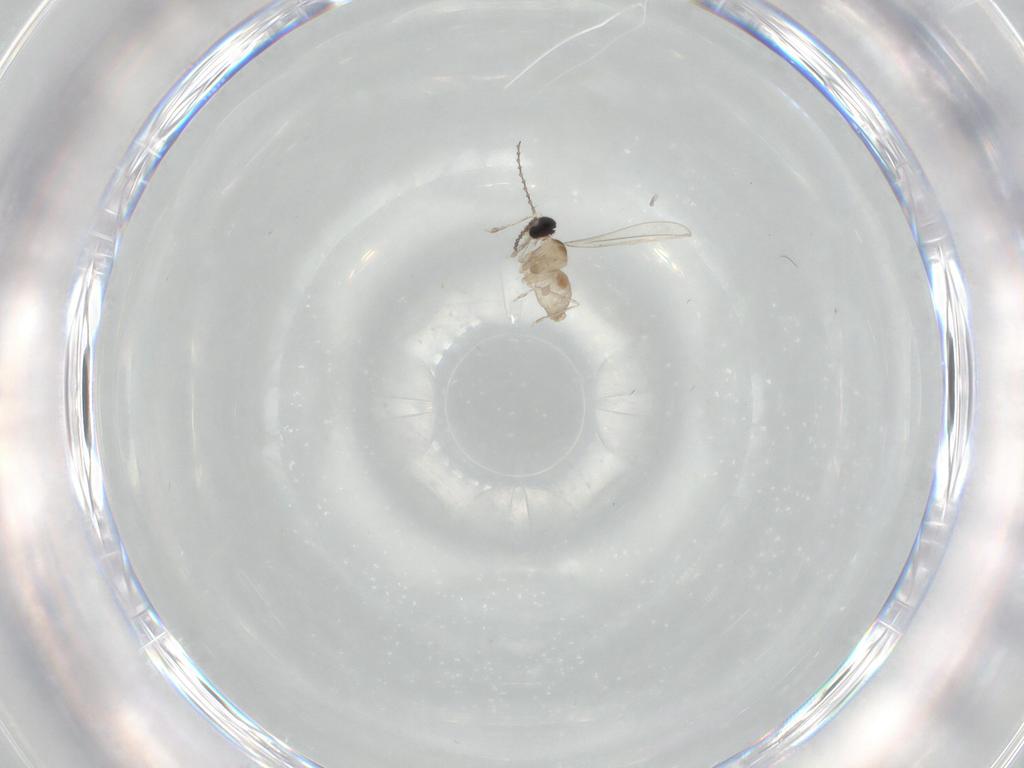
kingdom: Animalia
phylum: Arthropoda
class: Insecta
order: Diptera
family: Cecidomyiidae
